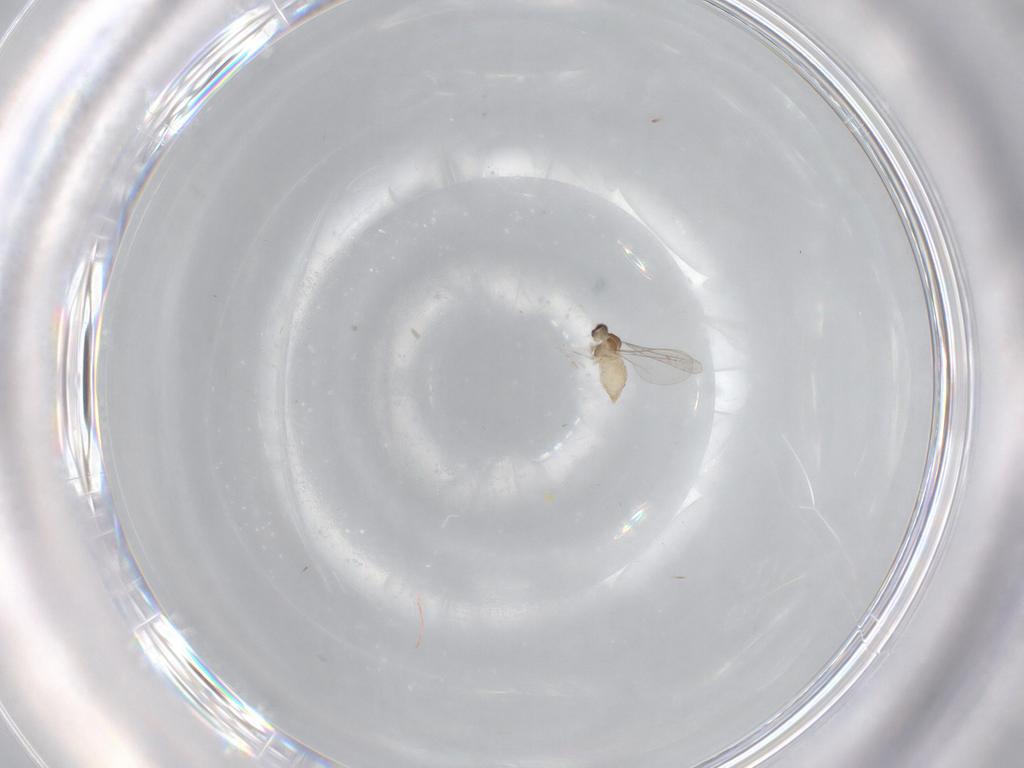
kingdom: Animalia
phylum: Arthropoda
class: Insecta
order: Diptera
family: Cecidomyiidae
